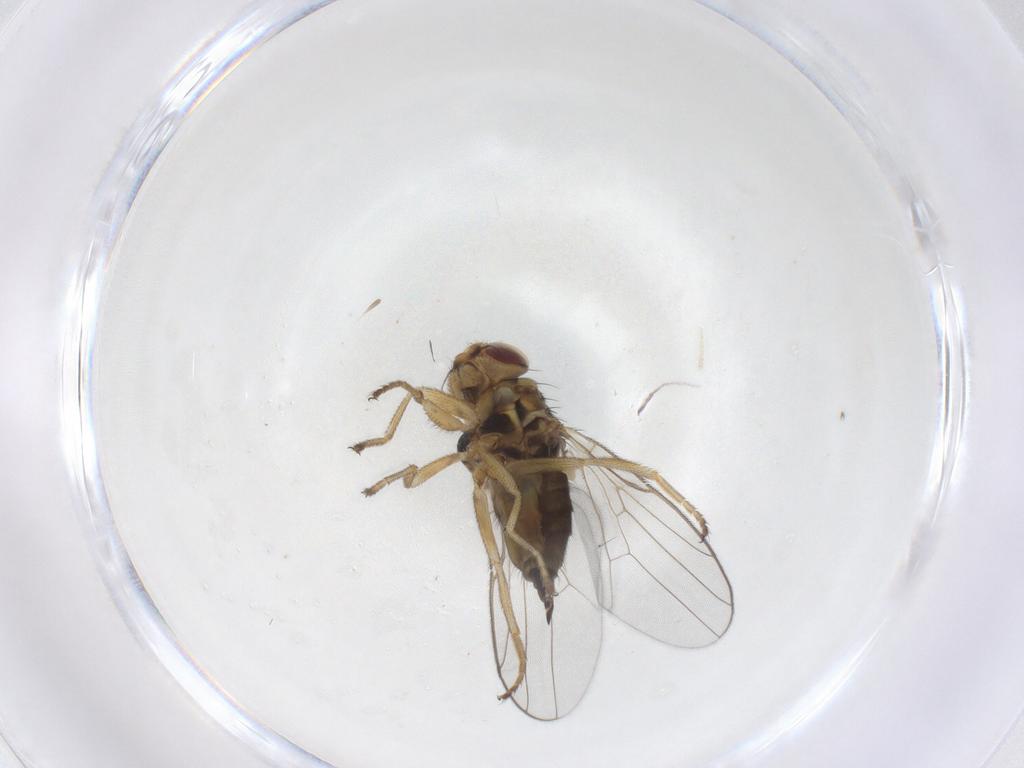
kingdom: Animalia
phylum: Arthropoda
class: Insecta
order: Diptera
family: Chloropidae
